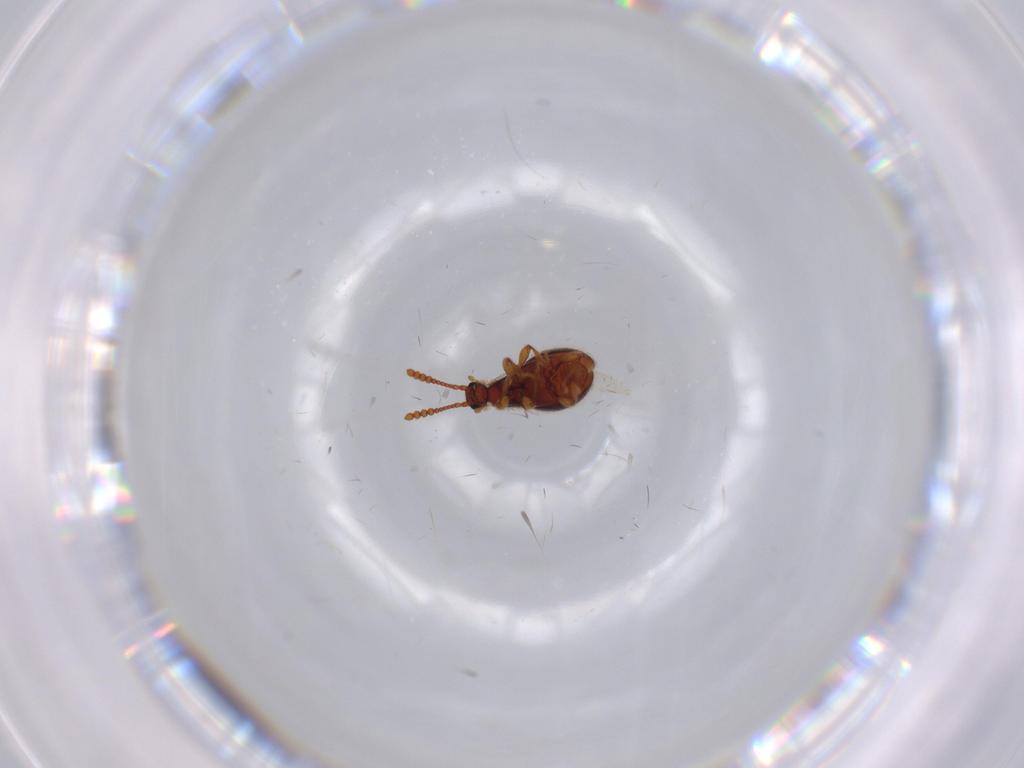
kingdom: Animalia
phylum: Arthropoda
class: Insecta
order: Coleoptera
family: Staphylinidae
